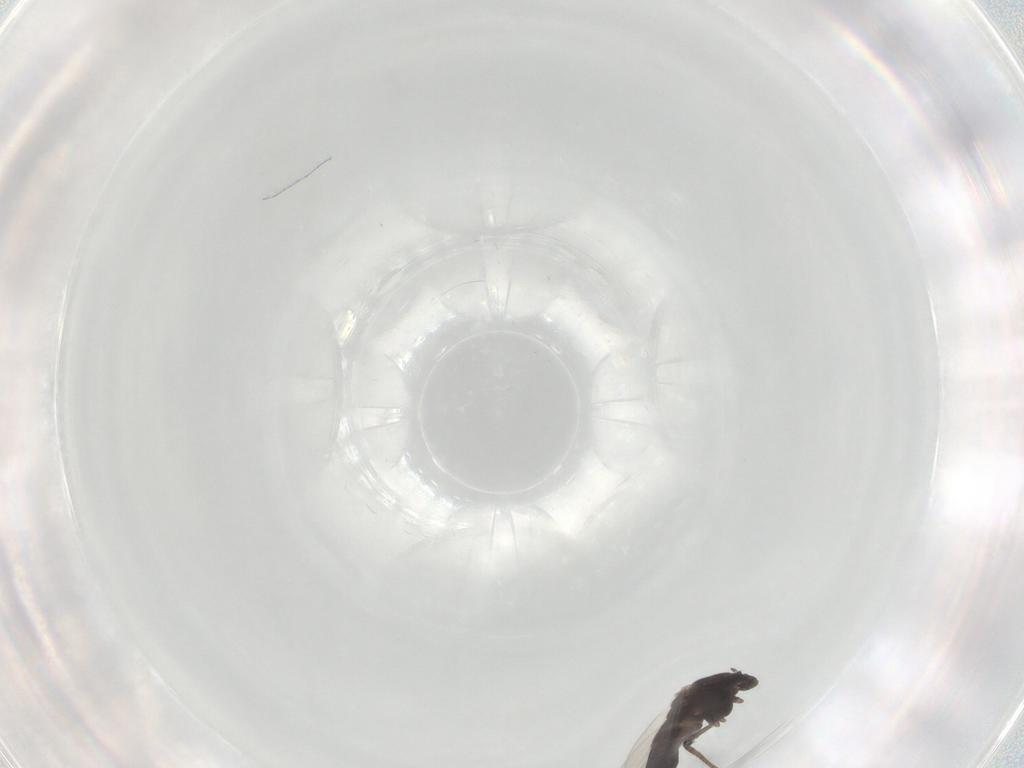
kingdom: Animalia
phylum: Arthropoda
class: Insecta
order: Diptera
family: Chironomidae
